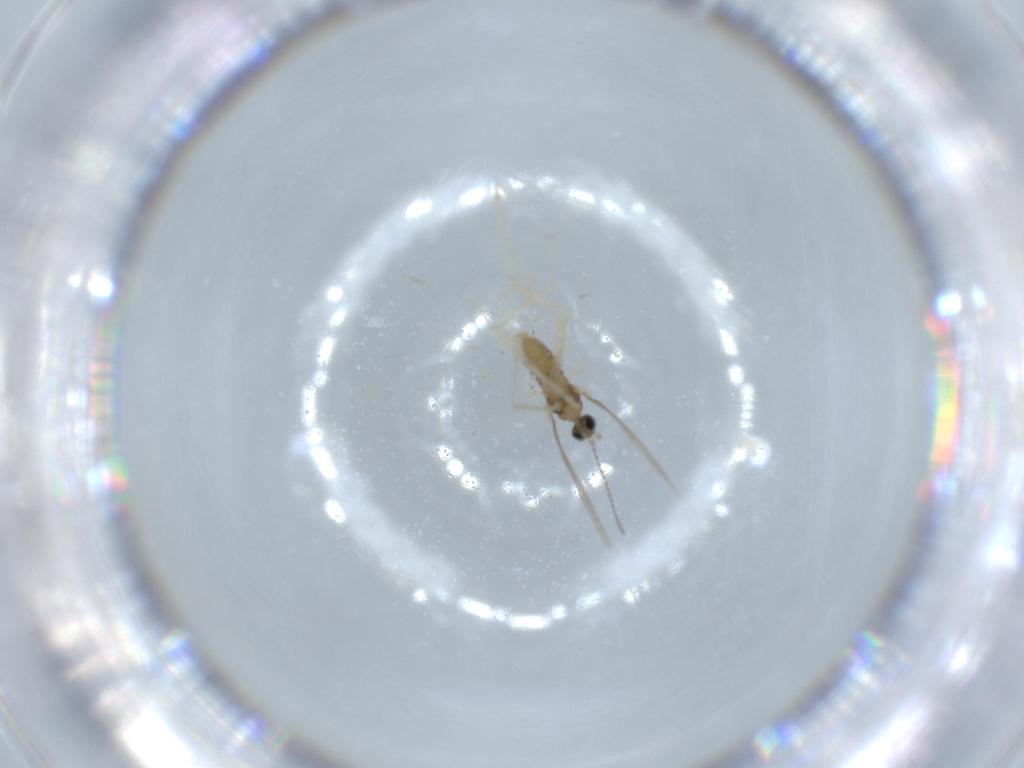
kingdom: Animalia
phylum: Arthropoda
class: Insecta
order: Diptera
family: Cecidomyiidae
